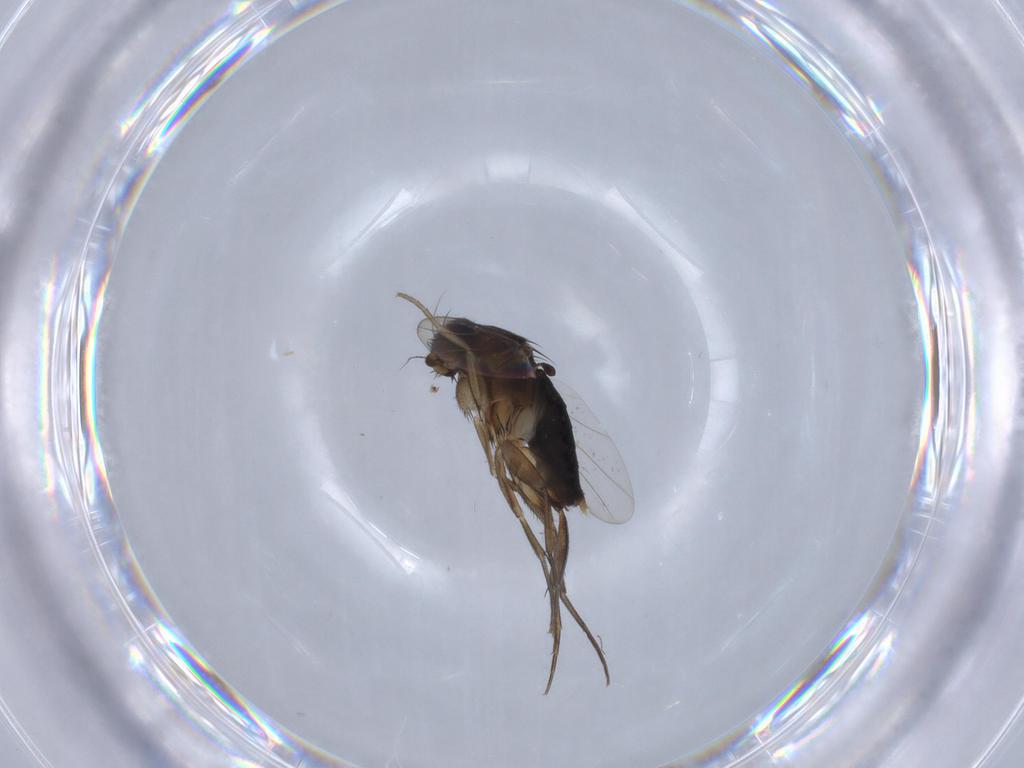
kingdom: Animalia
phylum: Arthropoda
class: Insecta
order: Diptera
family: Phoridae
